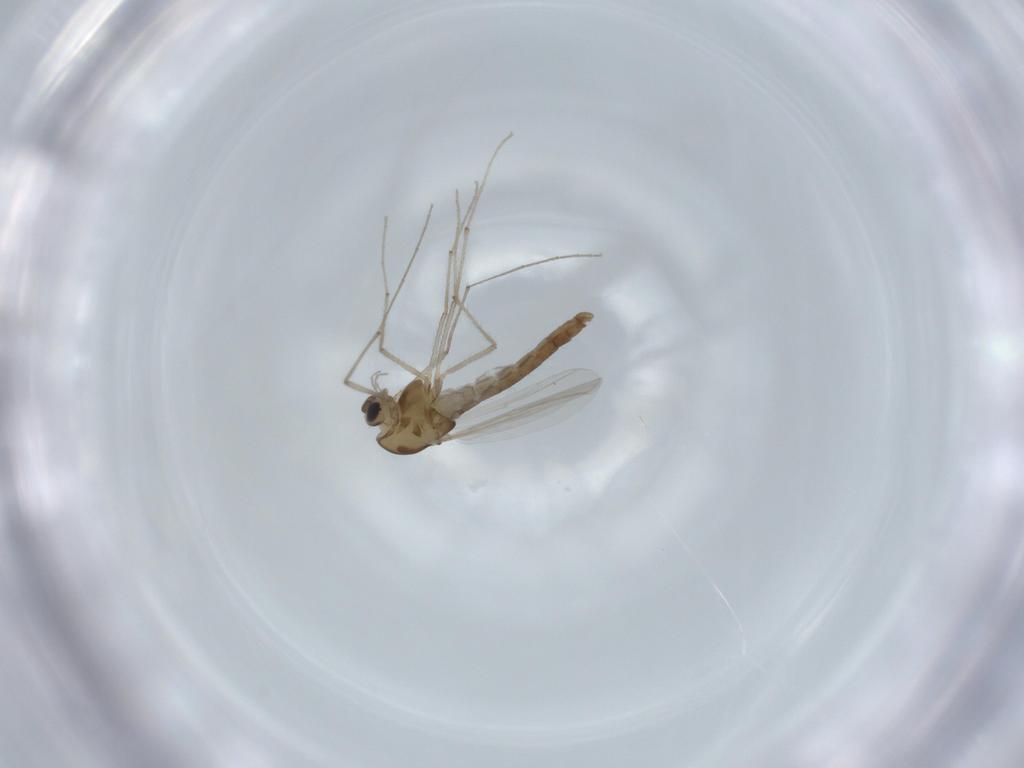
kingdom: Animalia
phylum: Arthropoda
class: Insecta
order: Diptera
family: Chironomidae
